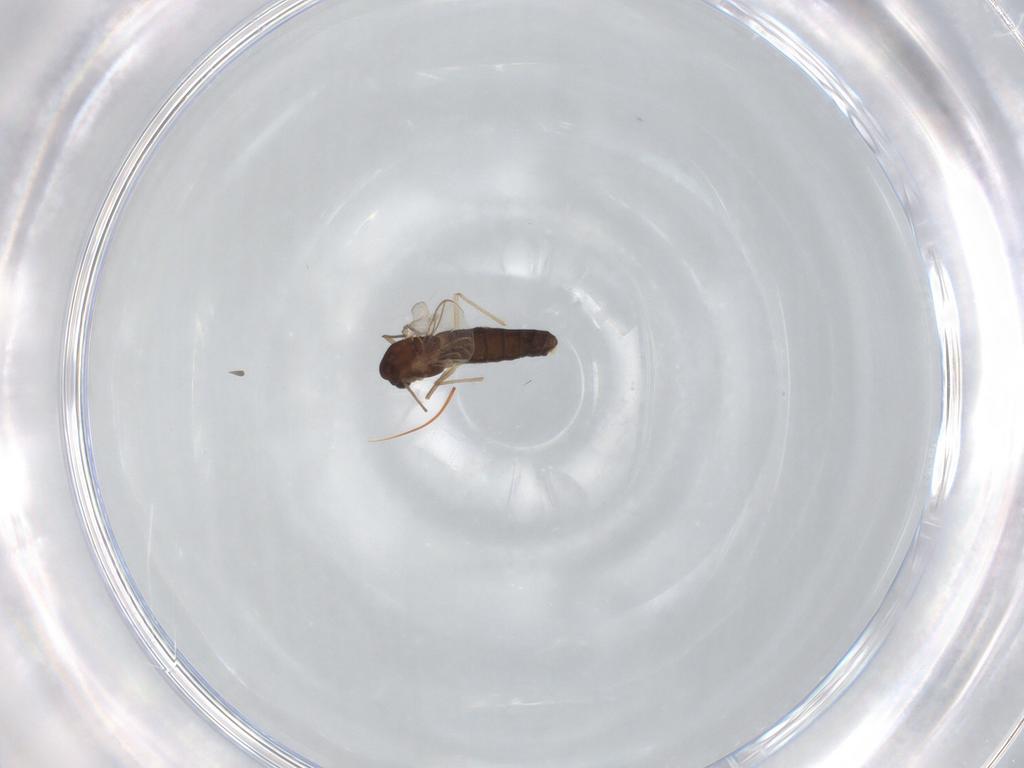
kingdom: Animalia
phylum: Arthropoda
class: Insecta
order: Diptera
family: Chironomidae
